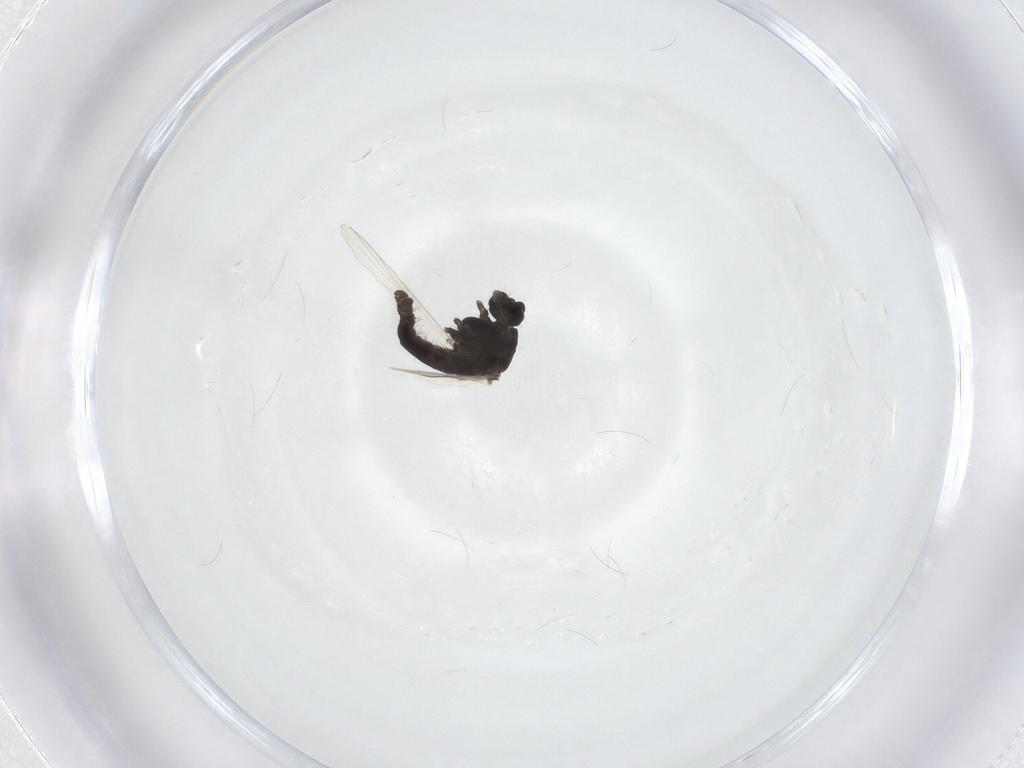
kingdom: Animalia
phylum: Arthropoda
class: Insecta
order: Diptera
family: Chironomidae
